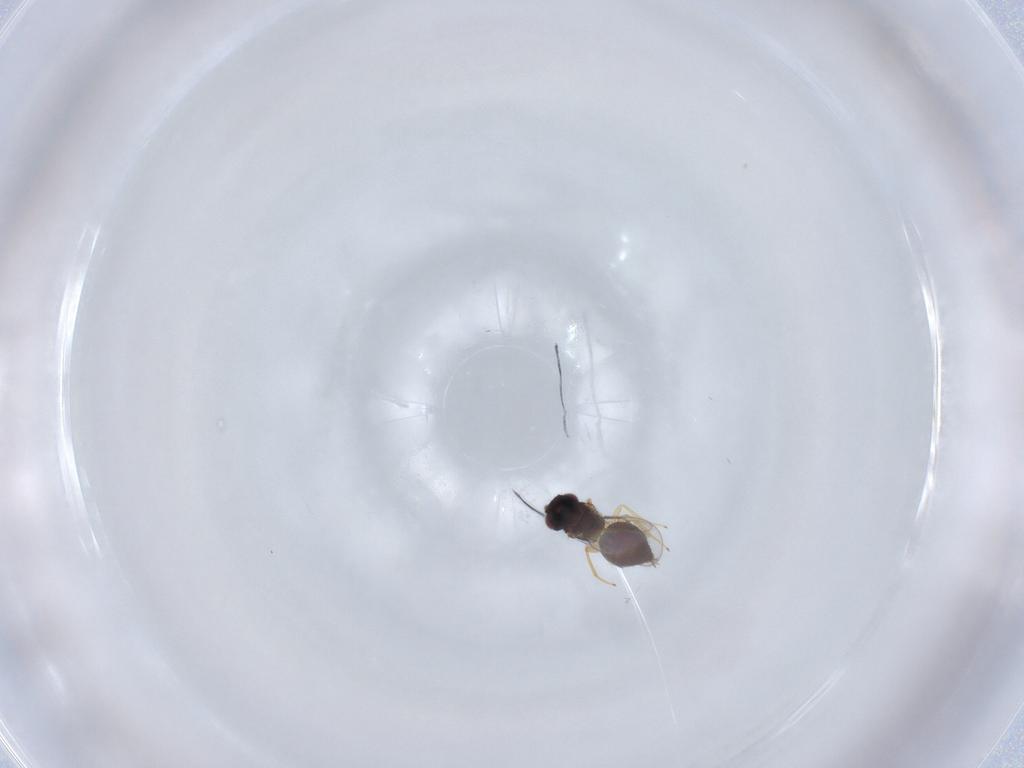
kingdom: Animalia
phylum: Arthropoda
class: Insecta
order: Hymenoptera
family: Eulophidae
